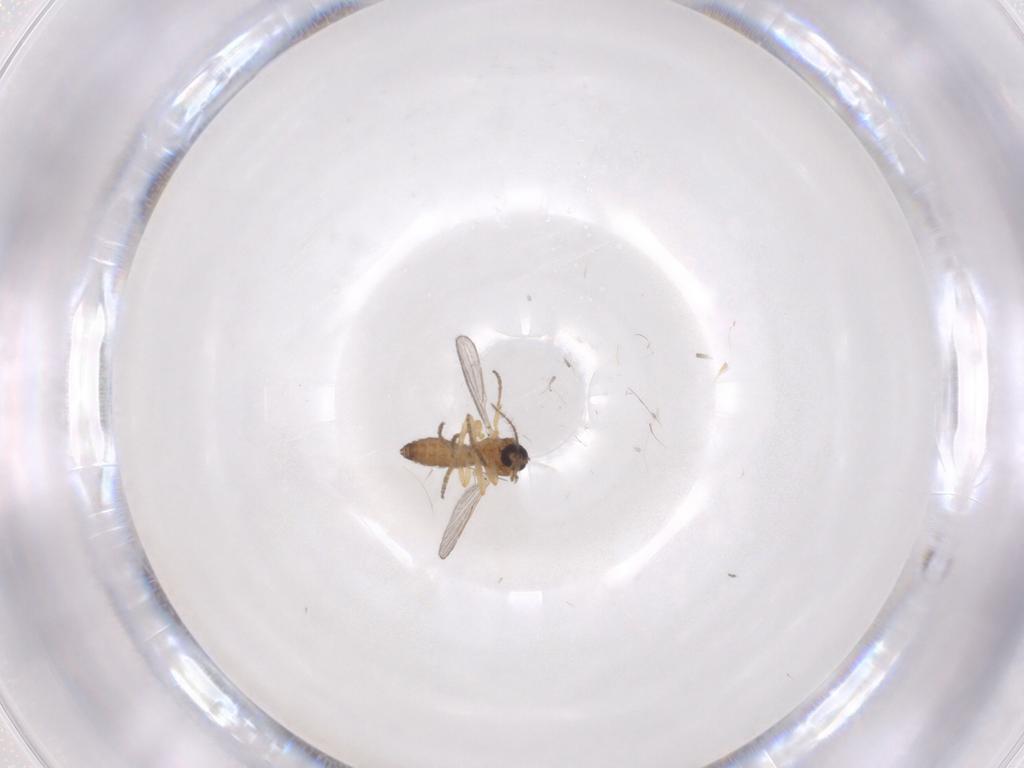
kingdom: Animalia
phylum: Arthropoda
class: Insecta
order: Diptera
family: Ceratopogonidae
